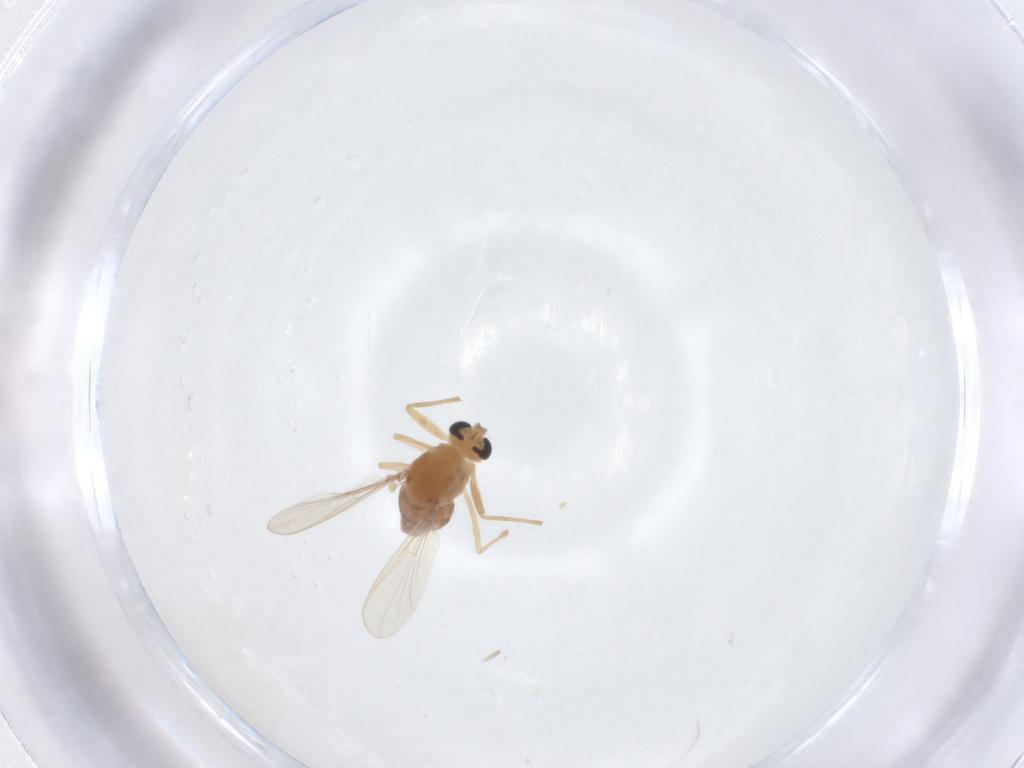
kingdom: Animalia
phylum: Arthropoda
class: Insecta
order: Diptera
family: Chironomidae
